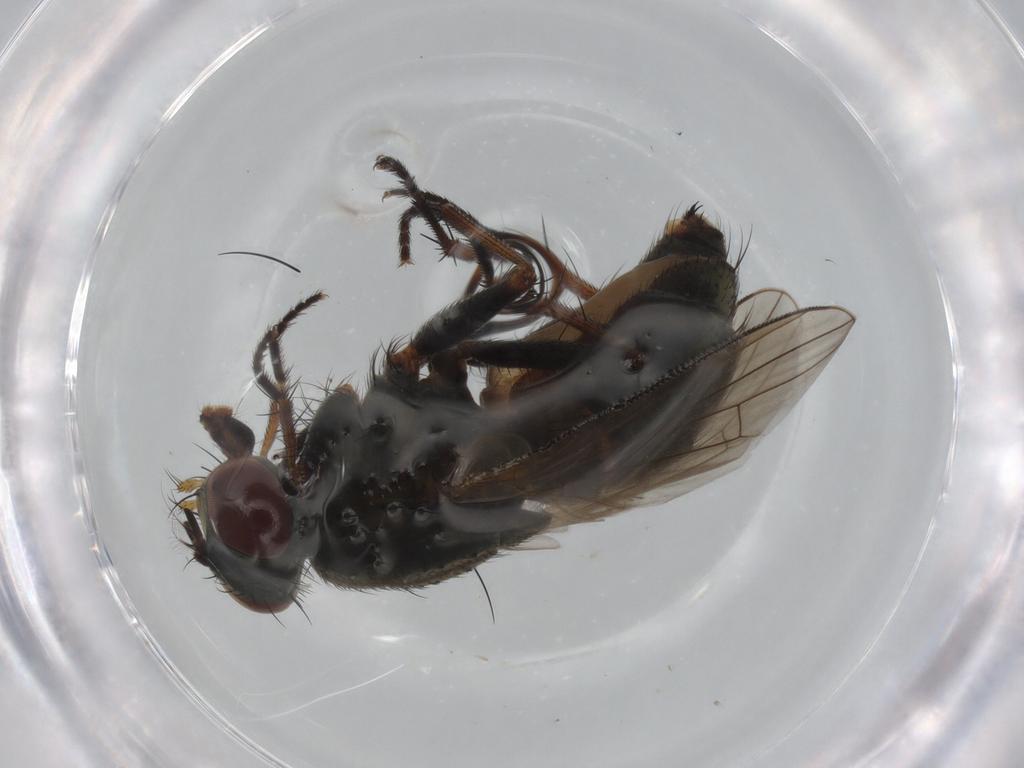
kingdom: Animalia
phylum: Arthropoda
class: Insecta
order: Diptera
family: Muscidae
